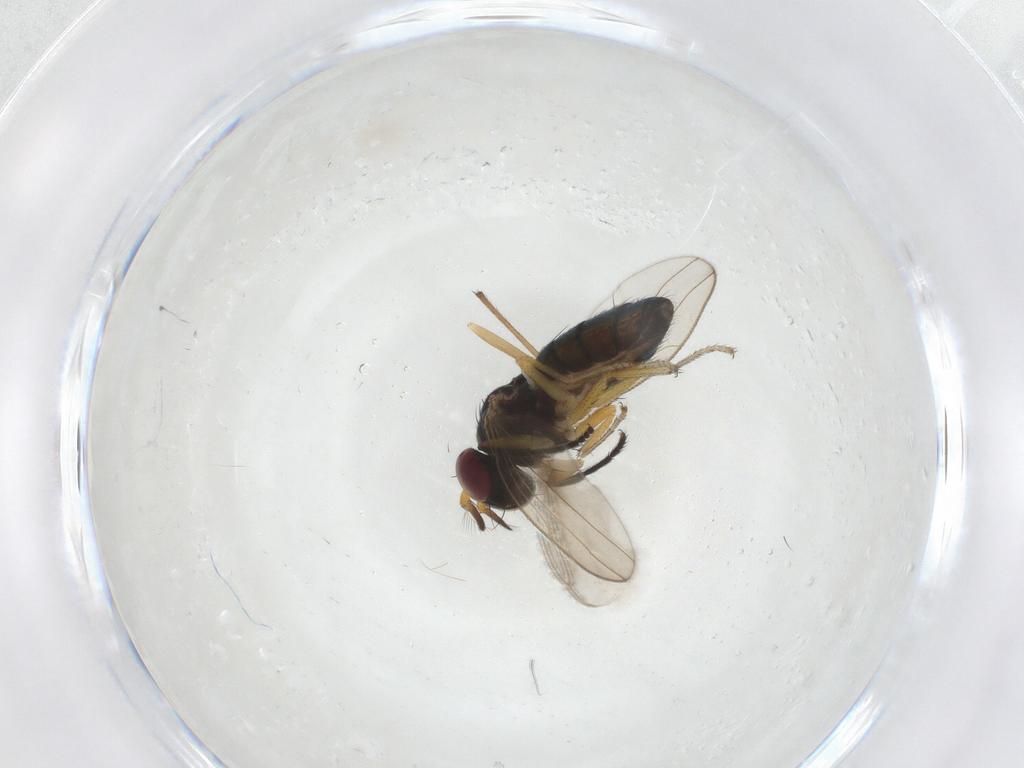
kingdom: Animalia
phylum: Arthropoda
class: Insecta
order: Diptera
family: Ephydridae
